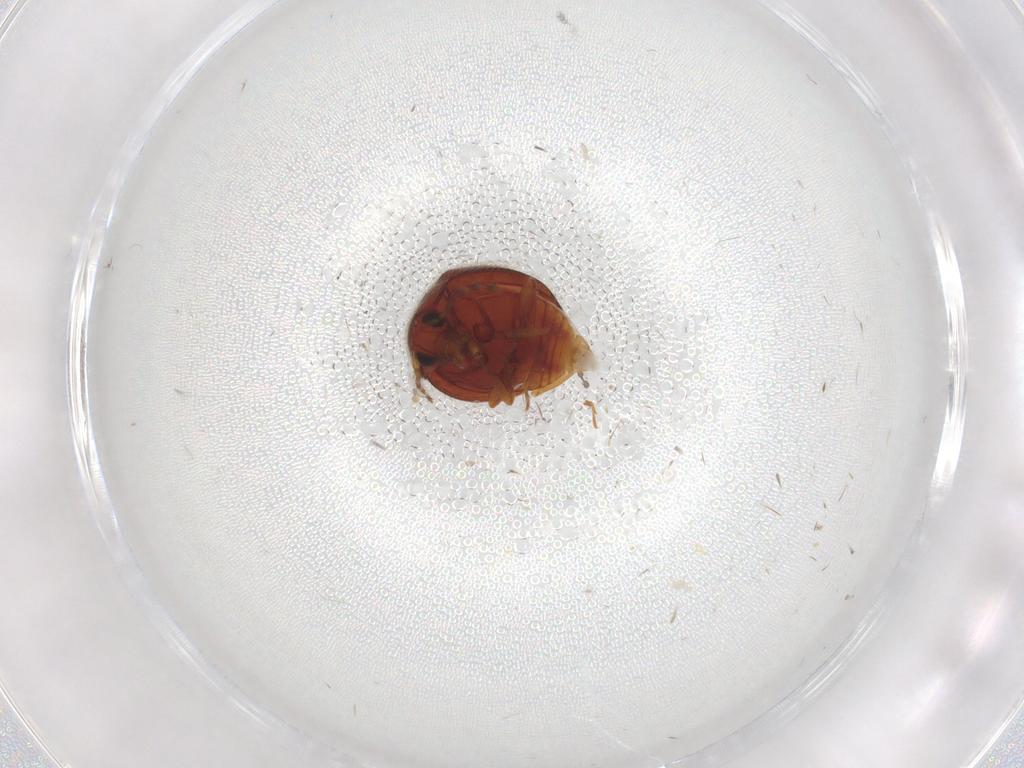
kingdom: Animalia
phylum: Arthropoda
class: Insecta
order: Coleoptera
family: Anamorphidae
